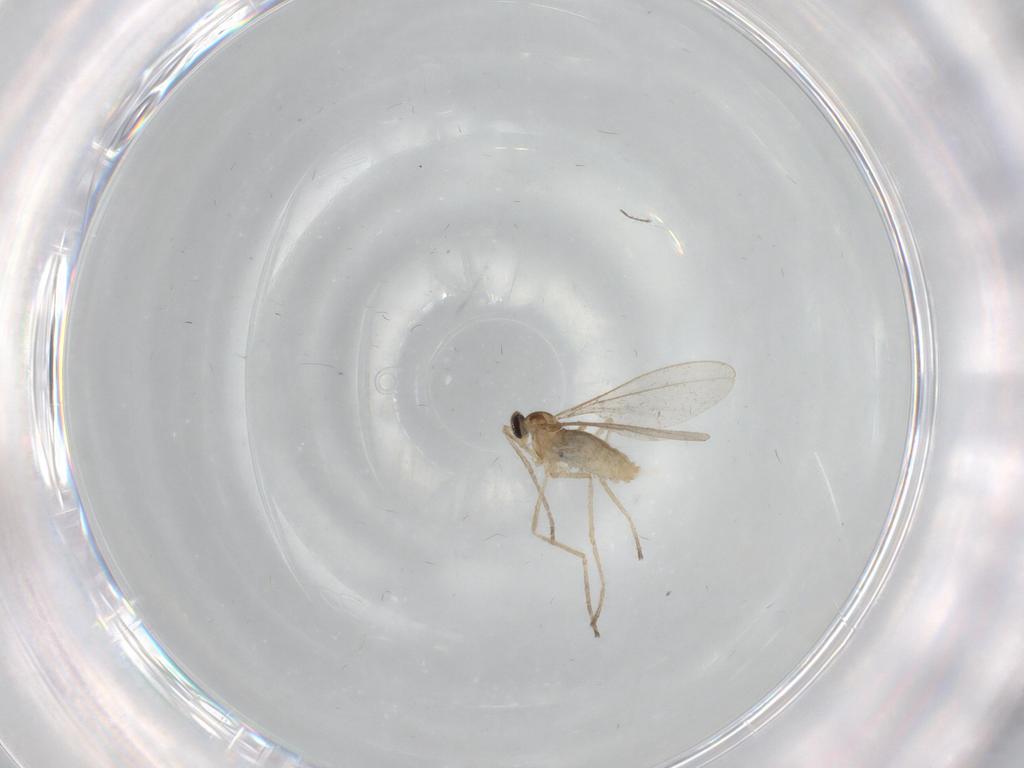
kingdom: Animalia
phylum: Arthropoda
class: Insecta
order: Diptera
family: Cecidomyiidae
